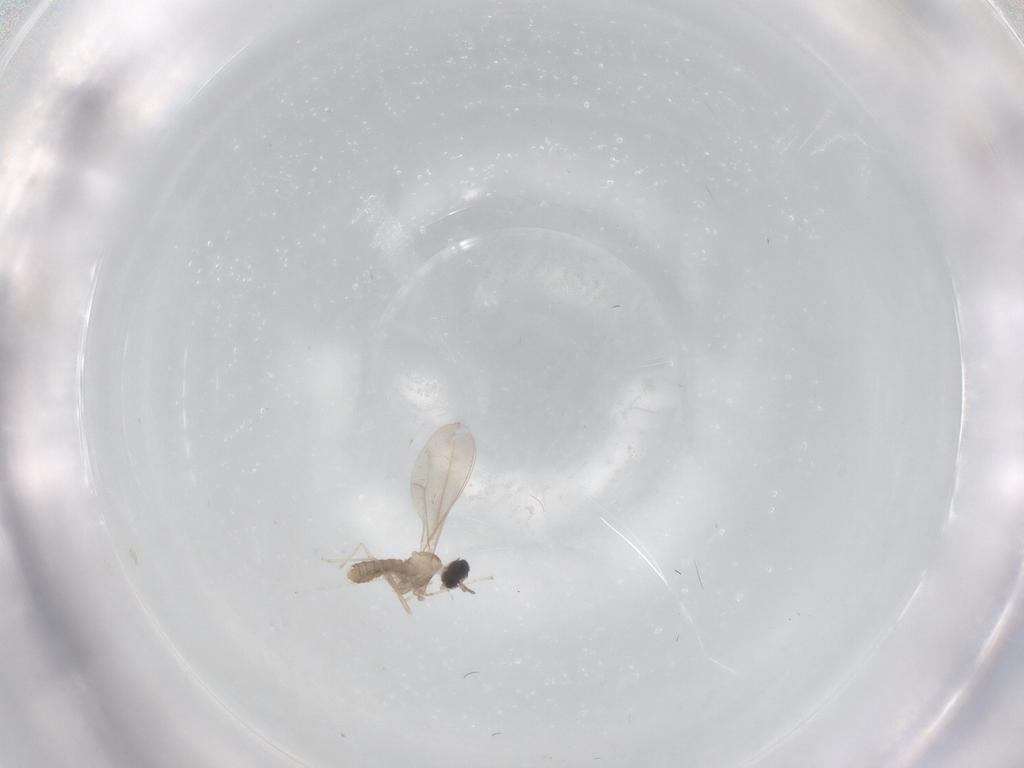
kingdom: Animalia
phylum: Arthropoda
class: Insecta
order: Diptera
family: Cecidomyiidae
